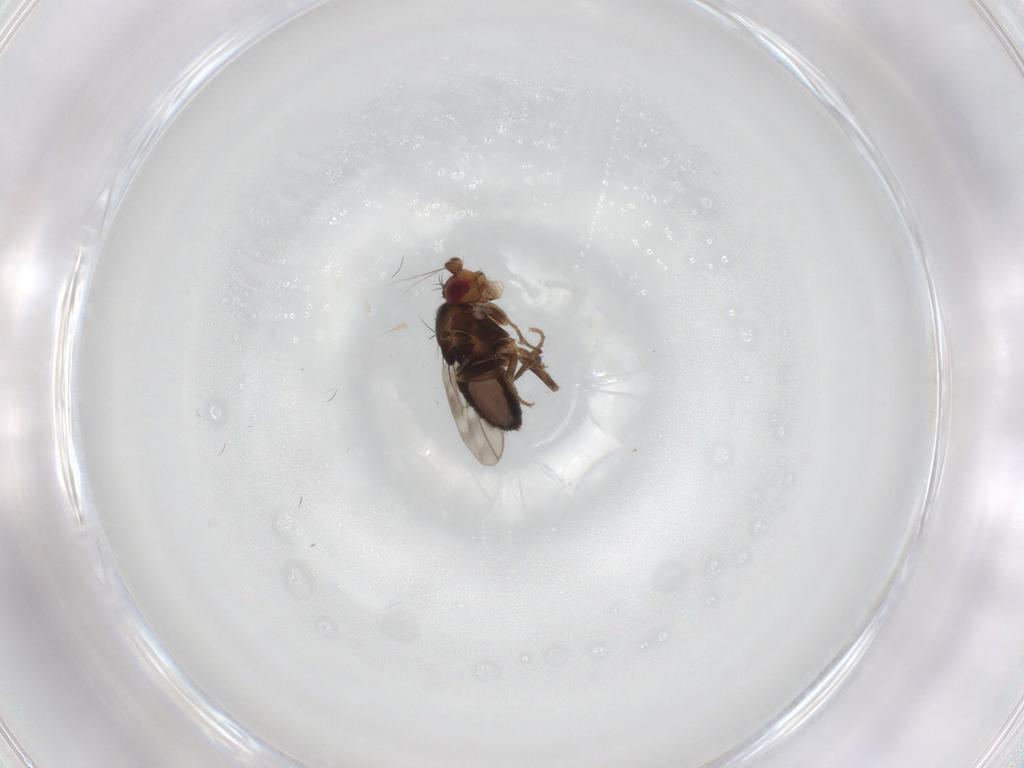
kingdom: Animalia
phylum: Arthropoda
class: Insecta
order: Diptera
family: Sphaeroceridae
